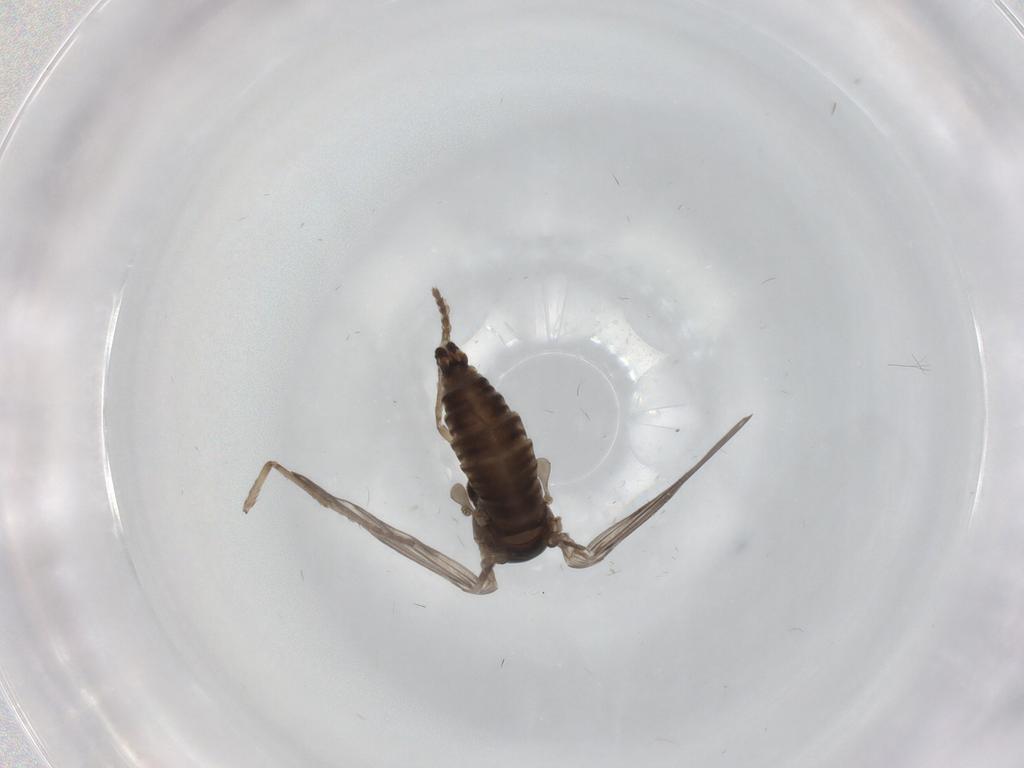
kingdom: Animalia
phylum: Arthropoda
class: Insecta
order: Diptera
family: Psychodidae
